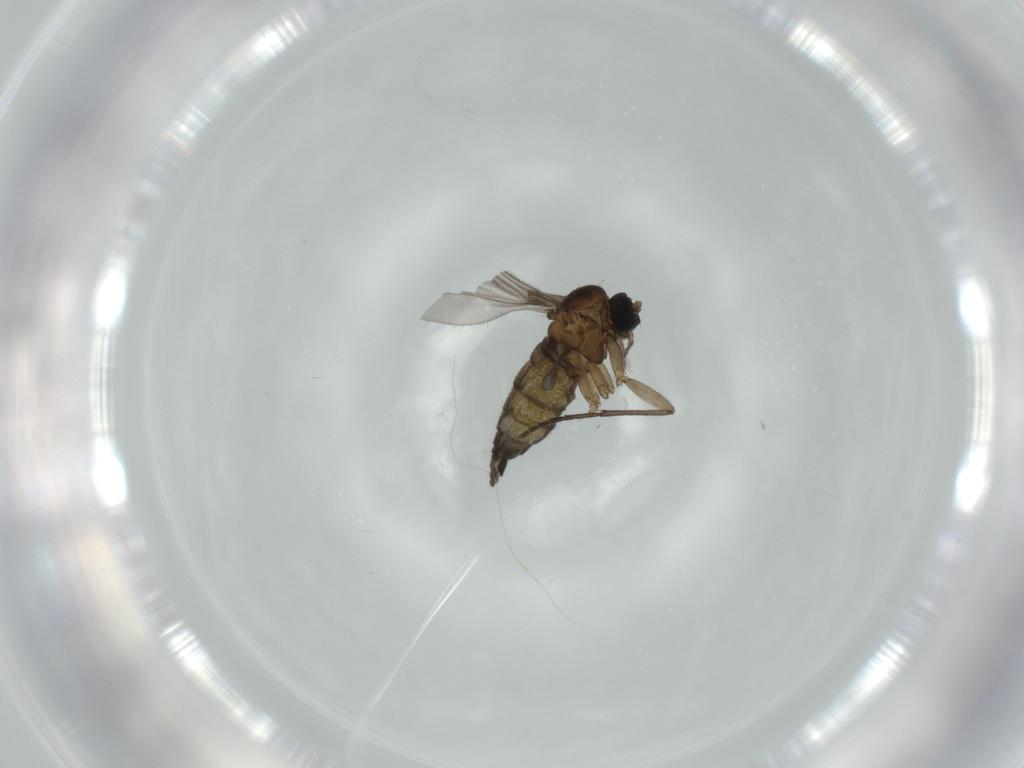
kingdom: Animalia
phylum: Arthropoda
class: Insecta
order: Diptera
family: Sciaridae
